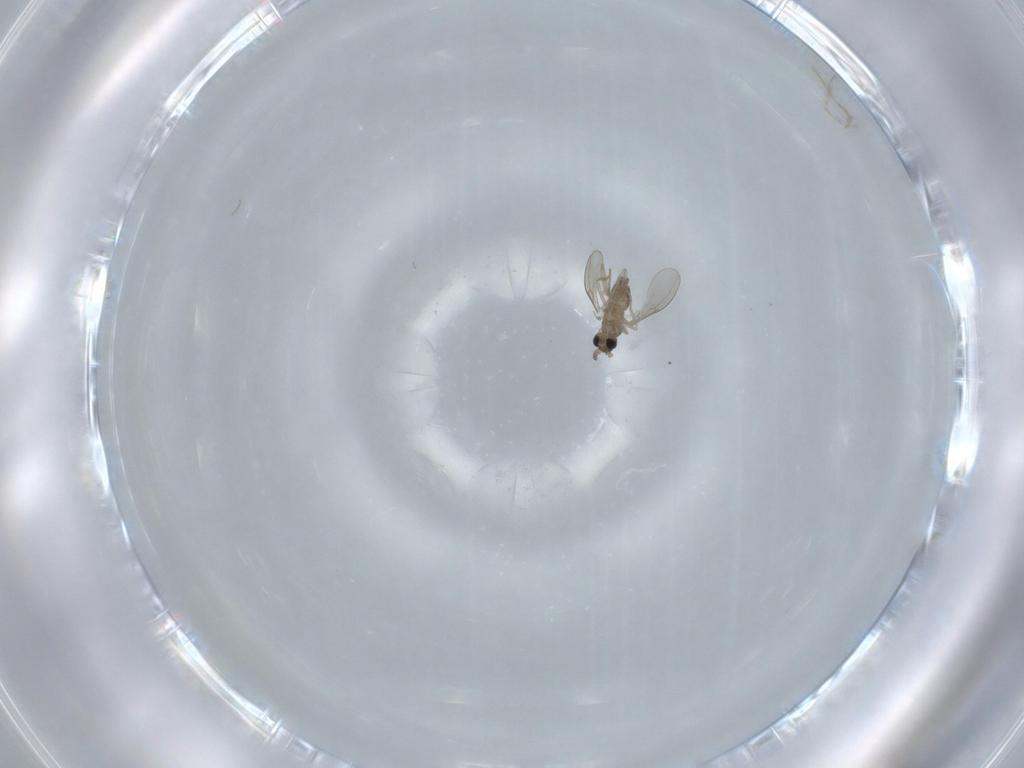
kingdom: Animalia
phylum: Arthropoda
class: Insecta
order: Diptera
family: Cecidomyiidae
